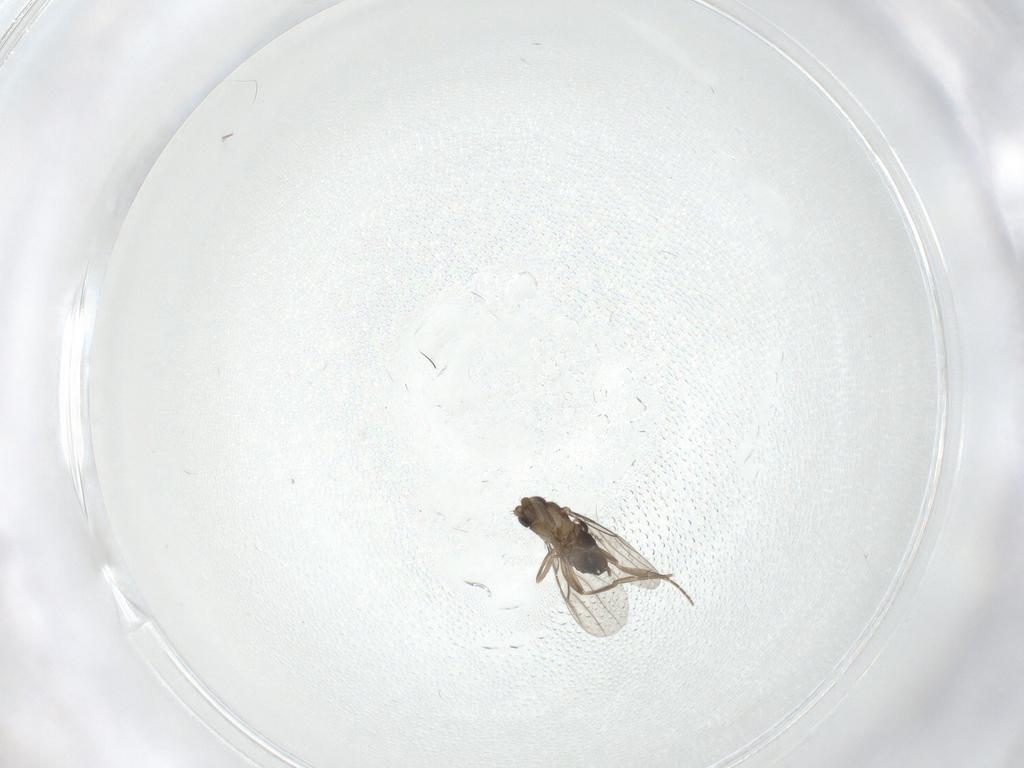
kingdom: Animalia
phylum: Arthropoda
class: Insecta
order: Diptera
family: Phoridae
